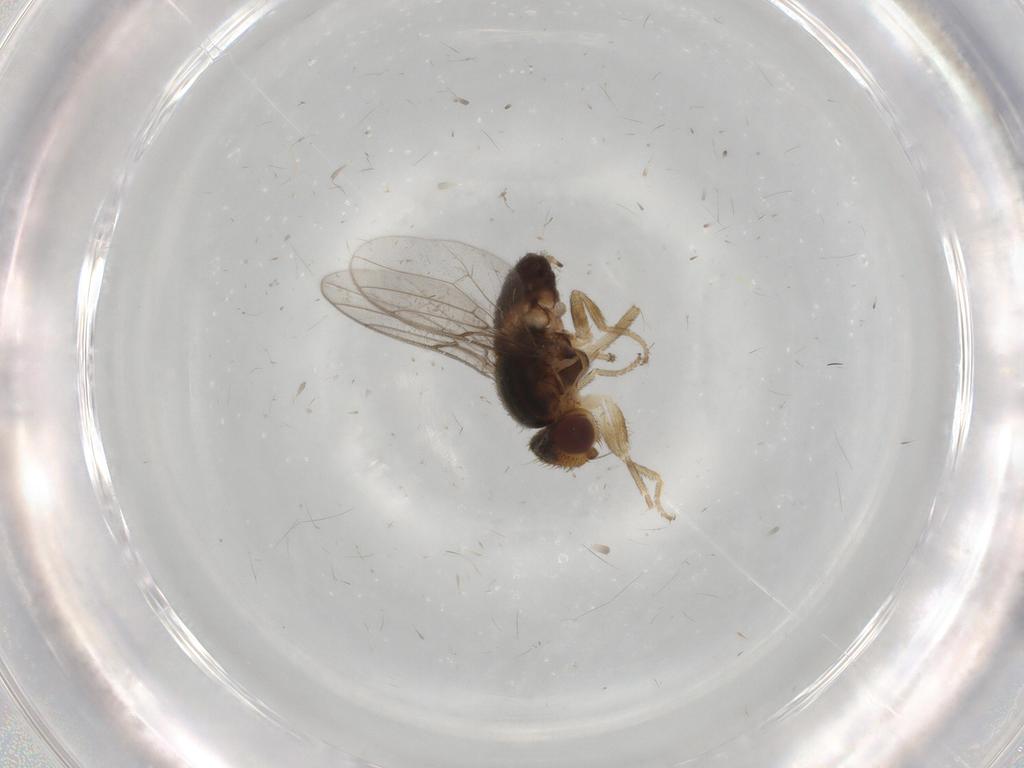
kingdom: Animalia
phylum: Arthropoda
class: Insecta
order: Diptera
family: Chloropidae
